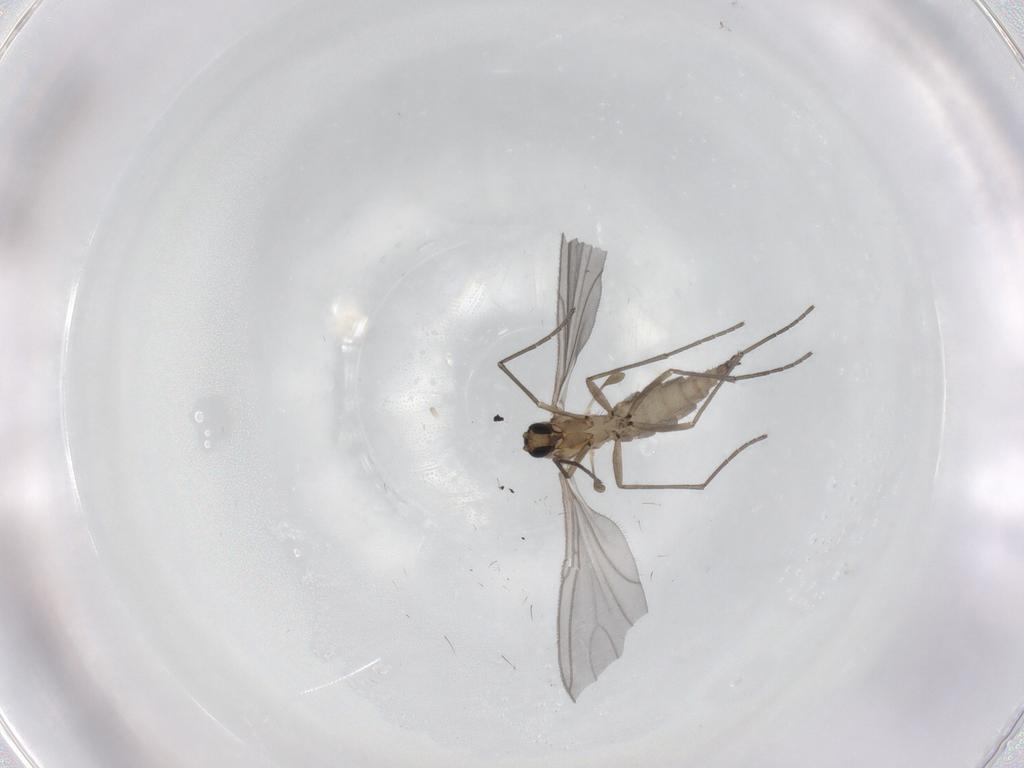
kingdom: Animalia
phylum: Arthropoda
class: Insecta
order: Diptera
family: Sciaridae
